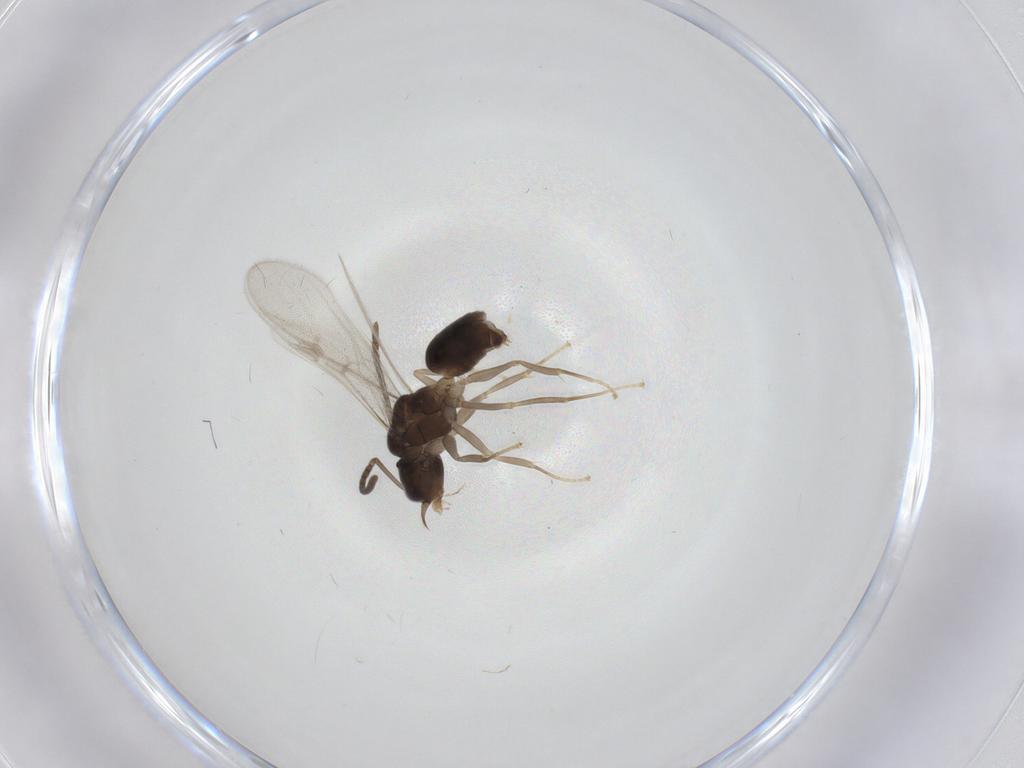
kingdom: Animalia
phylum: Arthropoda
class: Insecta
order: Hymenoptera
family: Formicidae
